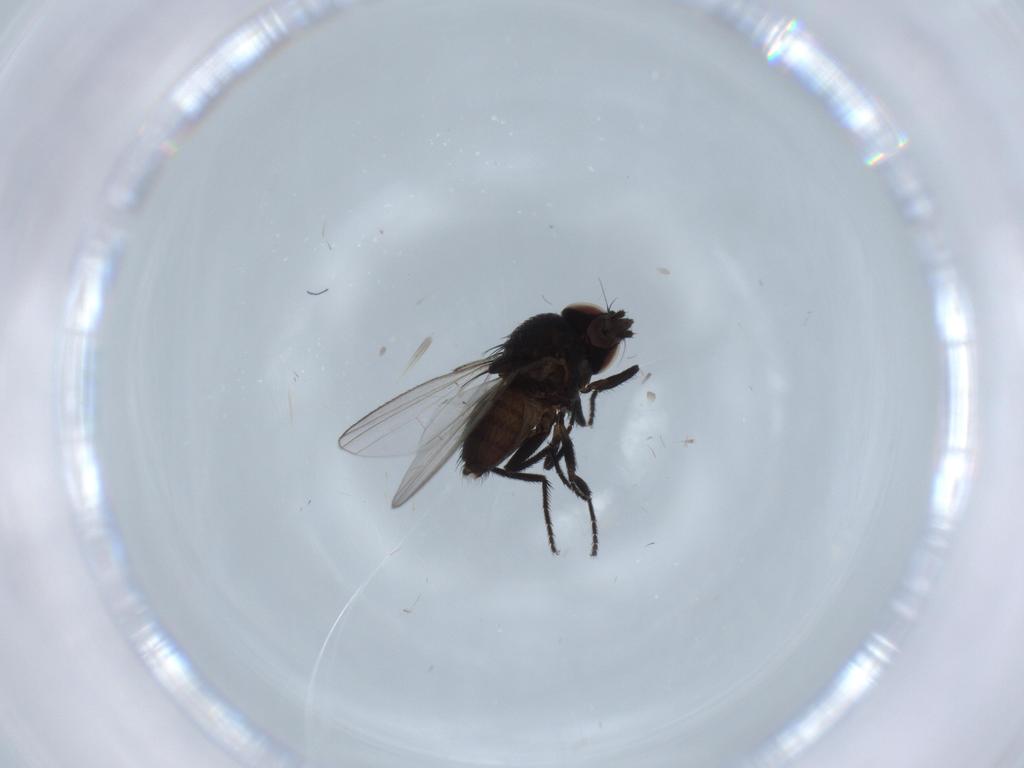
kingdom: Animalia
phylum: Arthropoda
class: Insecta
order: Diptera
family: Milichiidae
